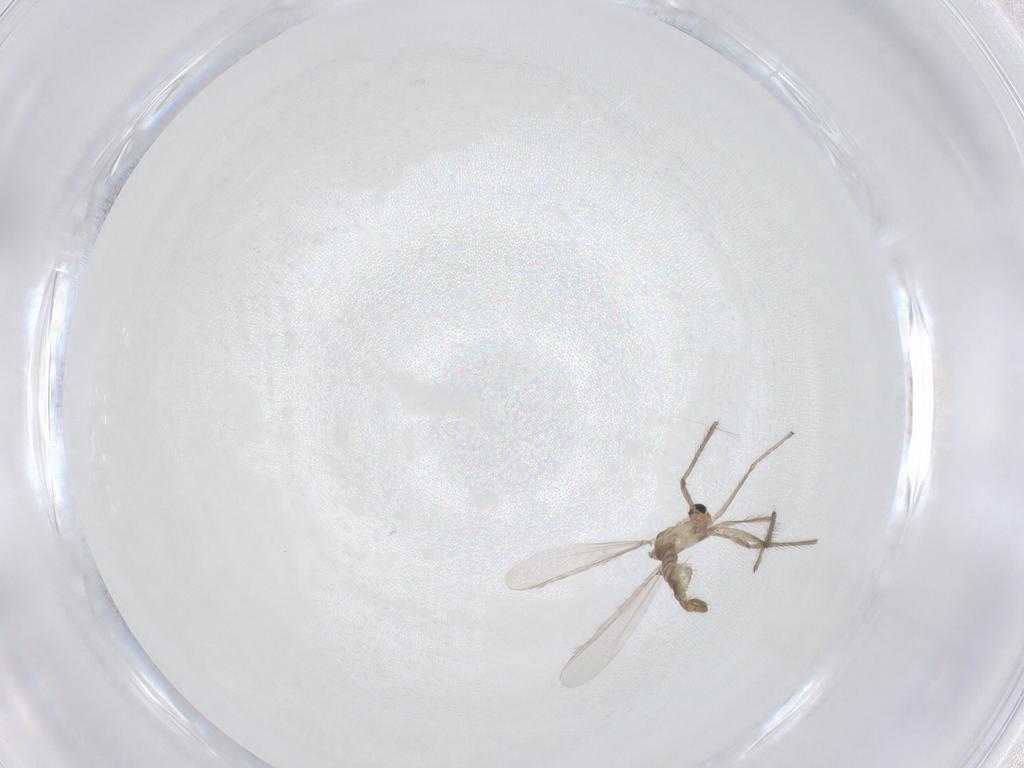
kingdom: Animalia
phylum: Arthropoda
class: Insecta
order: Diptera
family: Limoniidae
